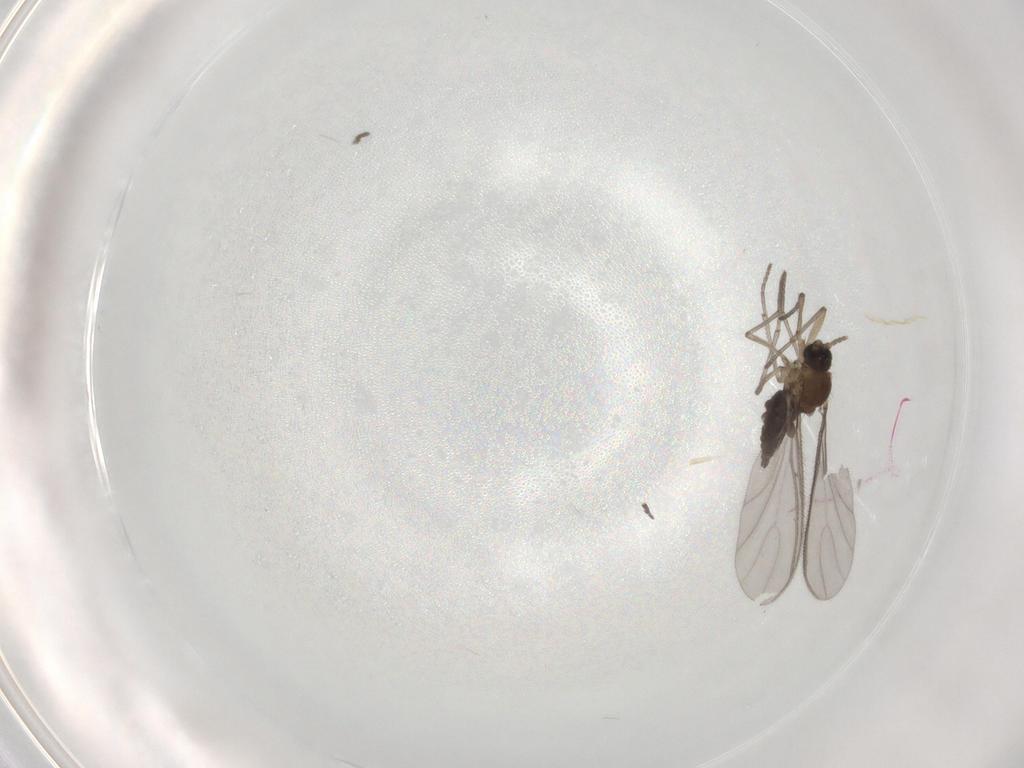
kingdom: Animalia
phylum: Arthropoda
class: Insecta
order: Diptera
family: Sciaridae
